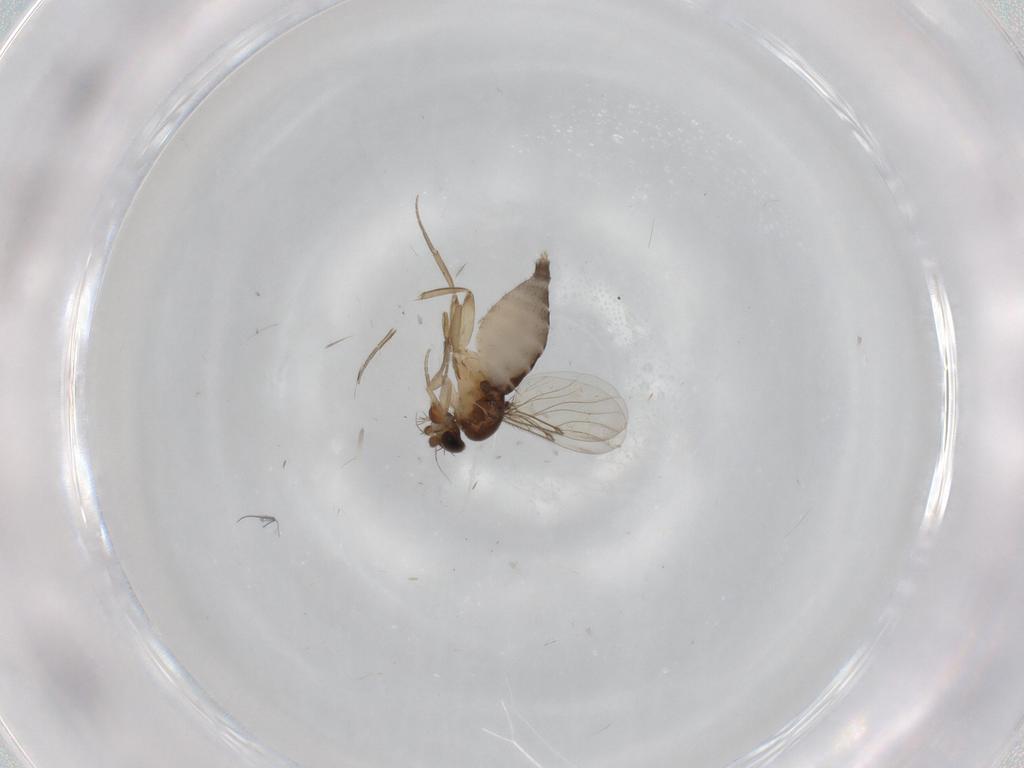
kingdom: Animalia
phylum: Arthropoda
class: Insecta
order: Diptera
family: Phoridae
